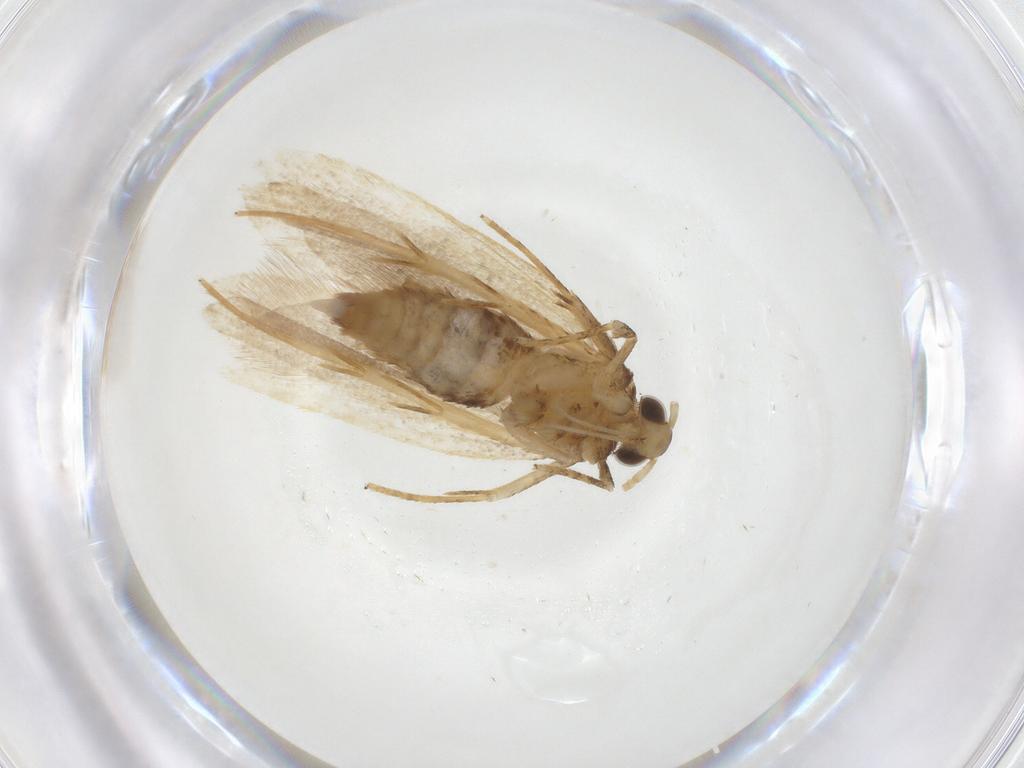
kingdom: Animalia
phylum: Arthropoda
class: Insecta
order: Lepidoptera
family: Lecithoceridae
